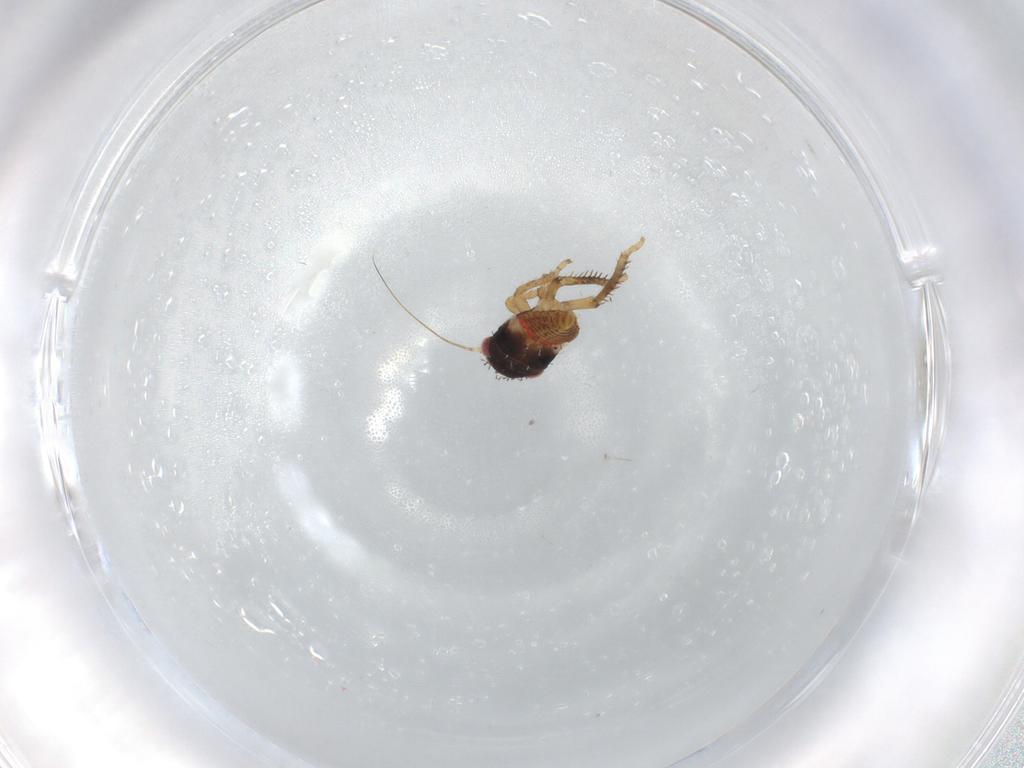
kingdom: Animalia
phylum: Arthropoda
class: Insecta
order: Hemiptera
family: Cicadellidae
